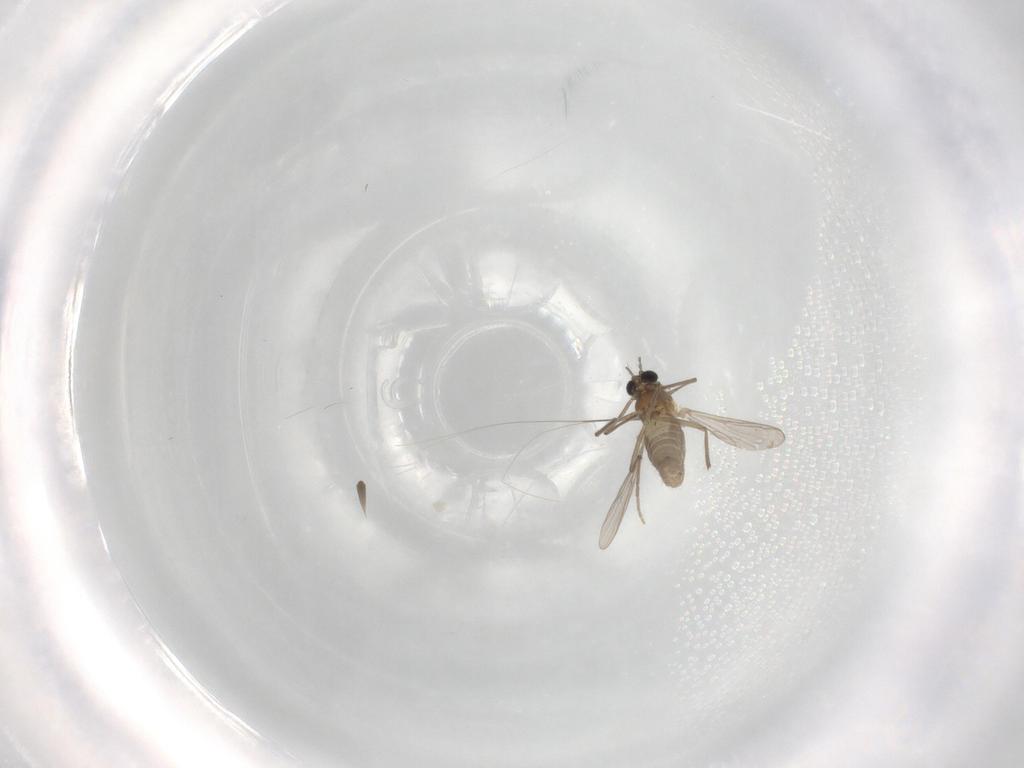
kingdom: Animalia
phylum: Arthropoda
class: Insecta
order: Diptera
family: Chironomidae
